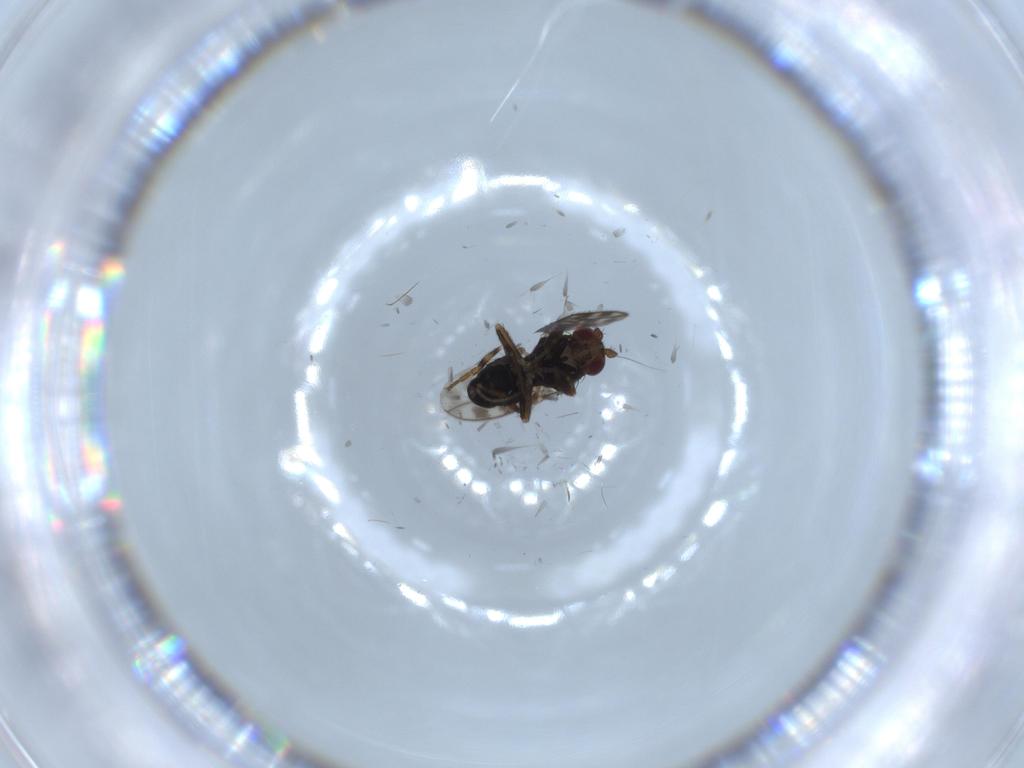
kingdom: Animalia
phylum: Arthropoda
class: Insecta
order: Diptera
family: Sphaeroceridae
